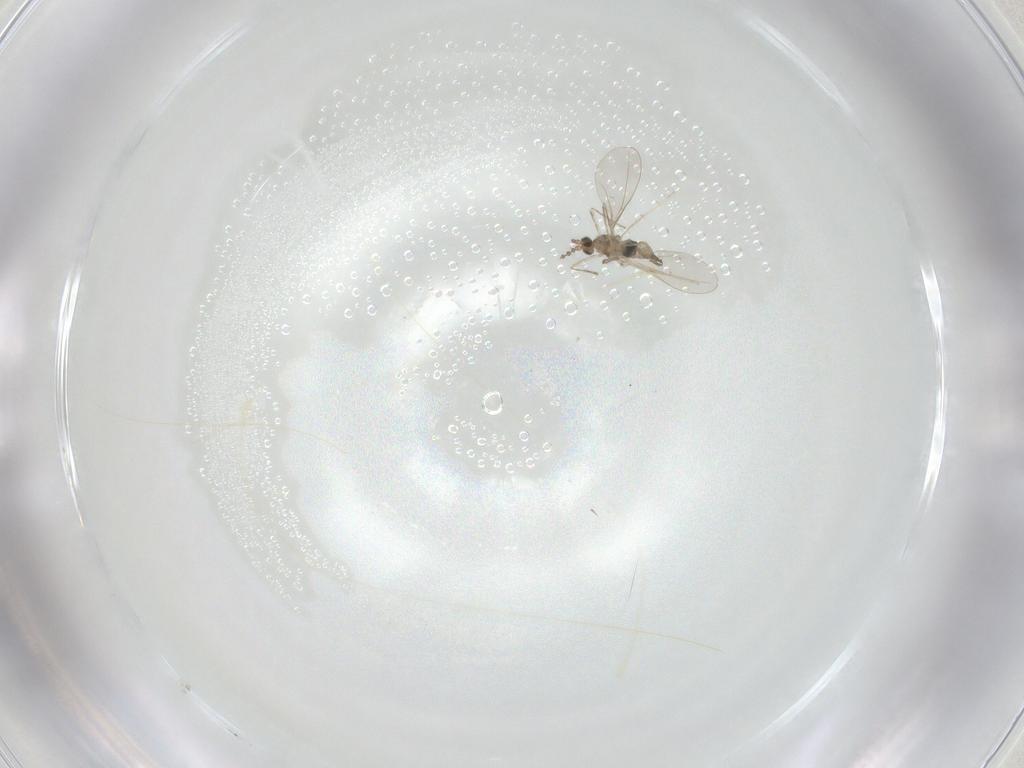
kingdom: Animalia
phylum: Arthropoda
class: Insecta
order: Diptera
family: Cecidomyiidae
